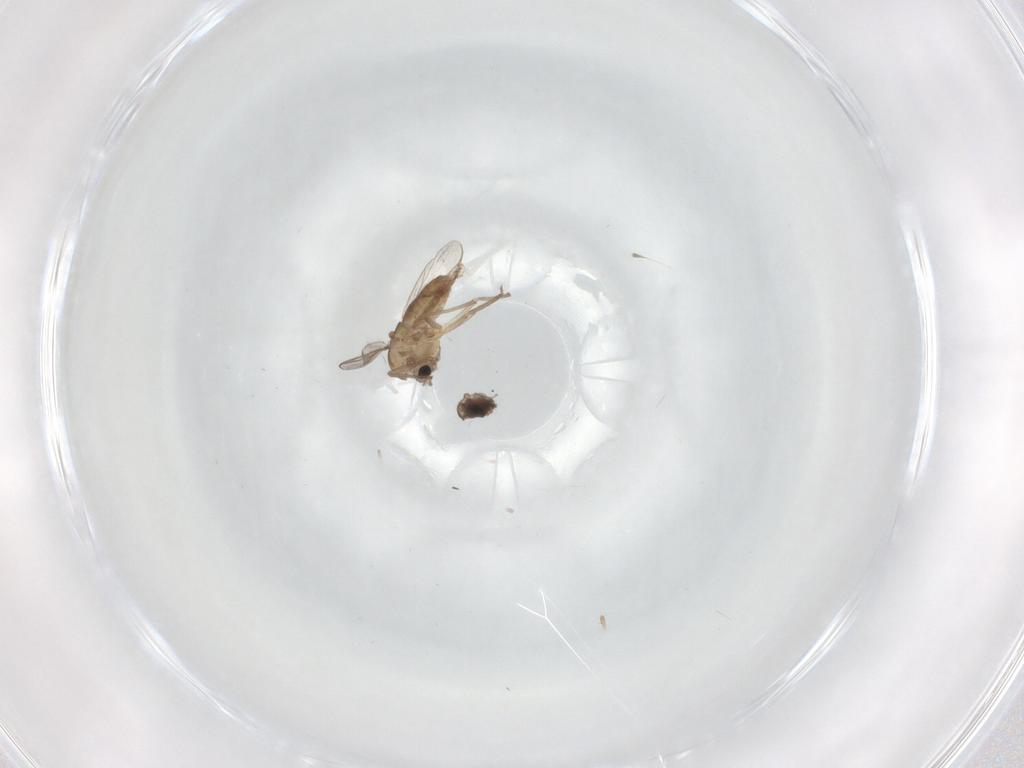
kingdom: Animalia
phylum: Arthropoda
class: Insecta
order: Diptera
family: Cecidomyiidae
